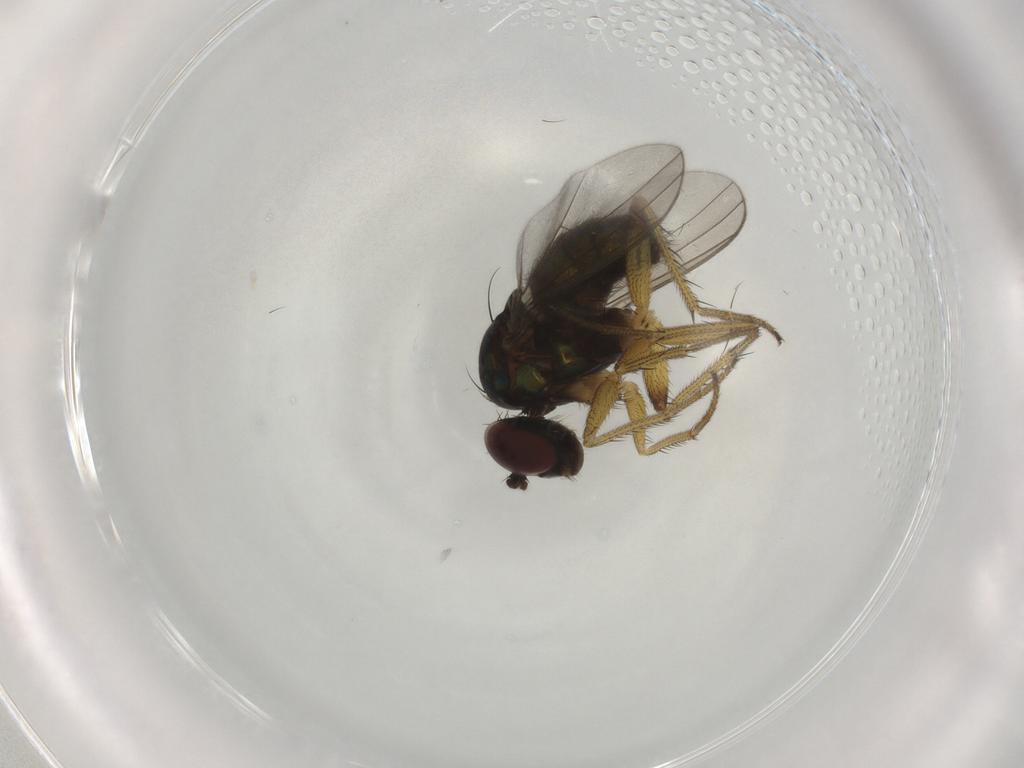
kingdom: Animalia
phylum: Arthropoda
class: Insecta
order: Diptera
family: Dolichopodidae
